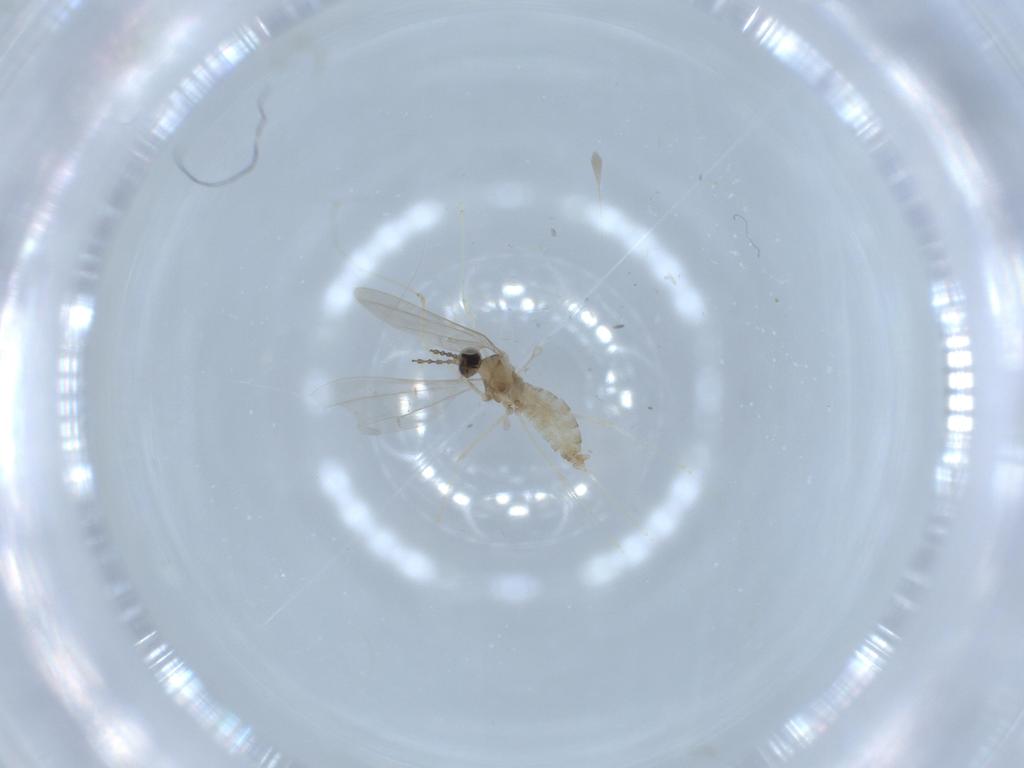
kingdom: Animalia
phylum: Arthropoda
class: Insecta
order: Diptera
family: Cecidomyiidae
